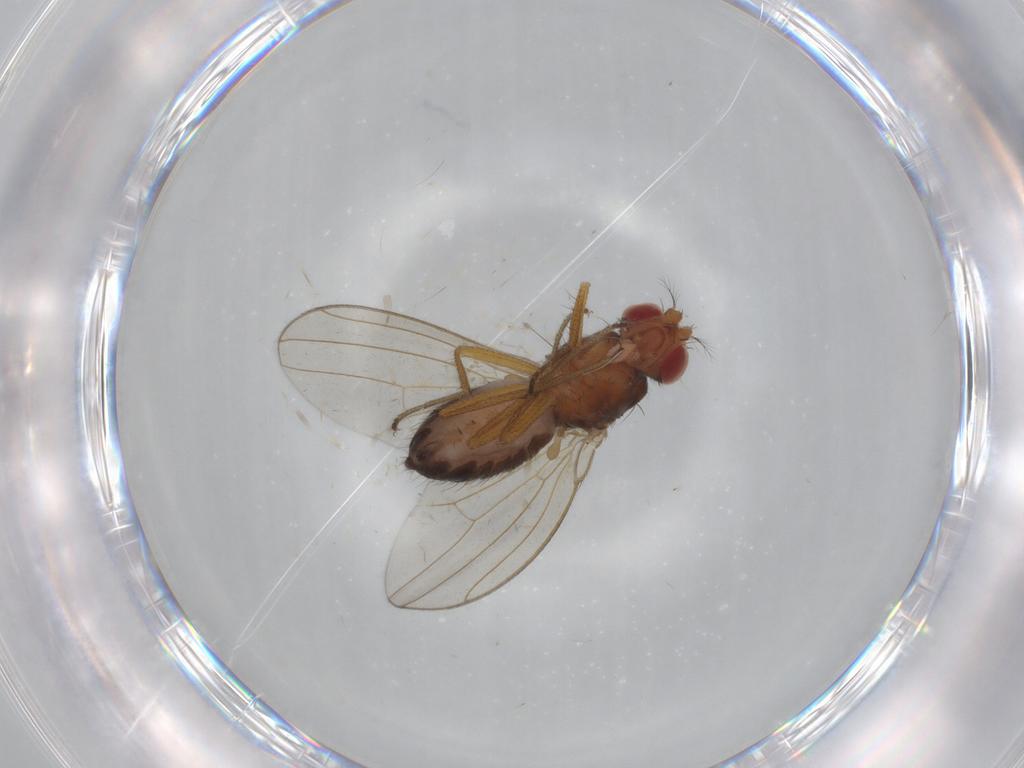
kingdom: Animalia
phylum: Arthropoda
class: Insecta
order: Diptera
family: Drosophilidae
